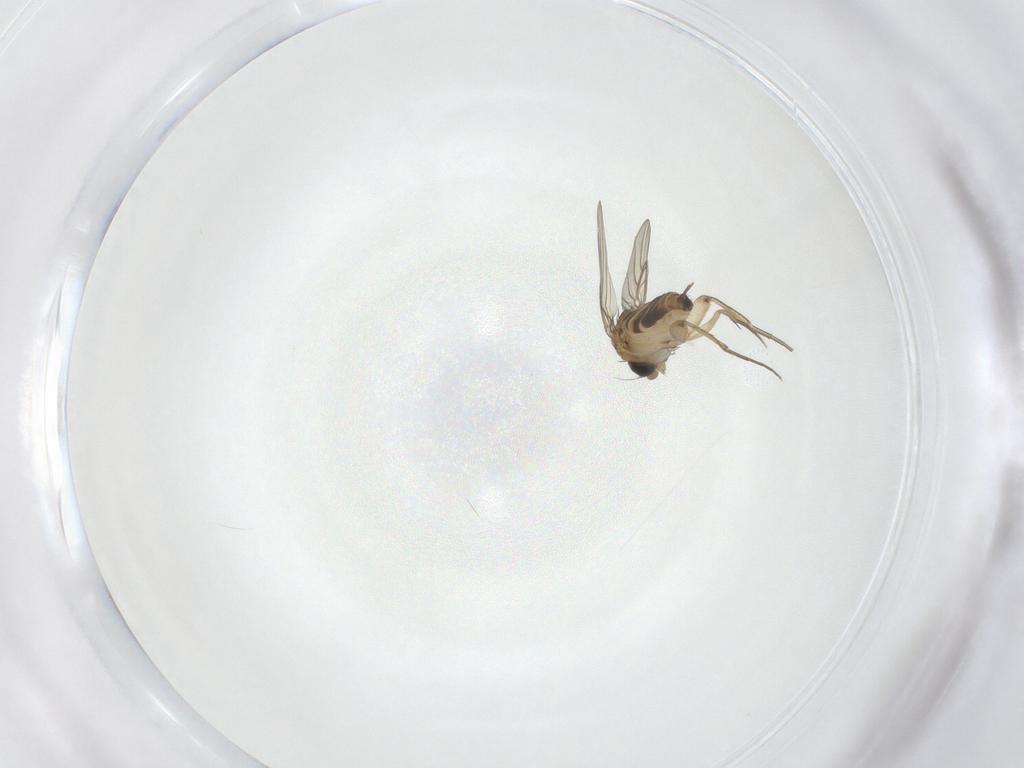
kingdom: Animalia
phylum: Arthropoda
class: Insecta
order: Diptera
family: Phoridae
